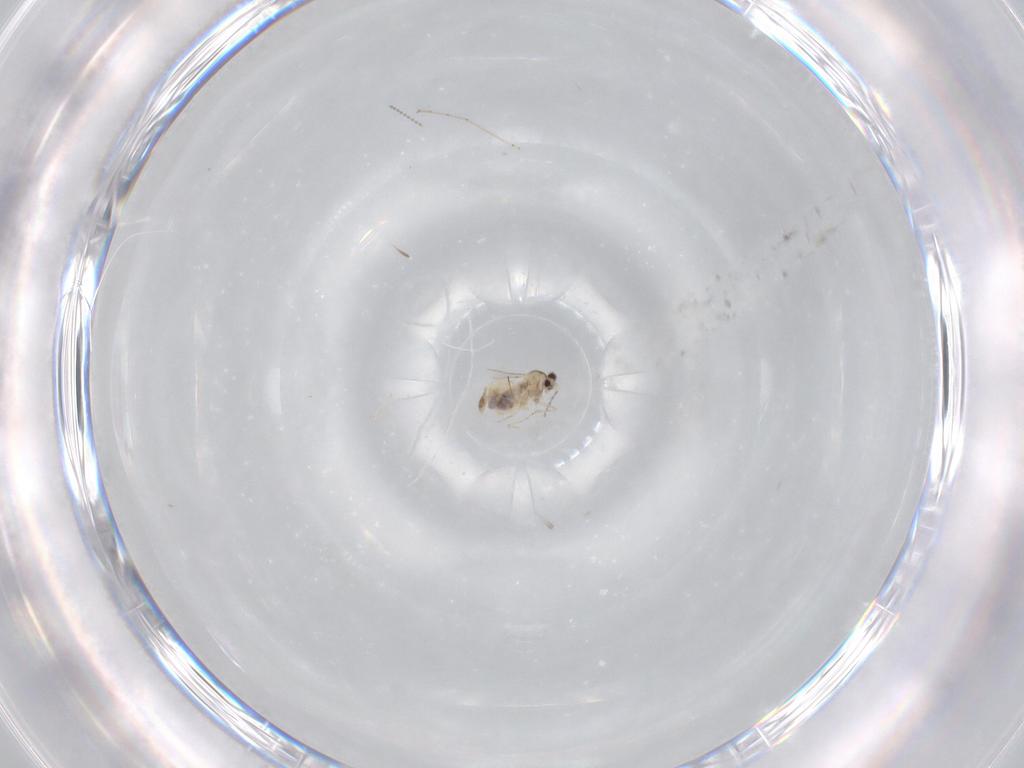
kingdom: Animalia
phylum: Arthropoda
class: Insecta
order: Diptera
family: Cecidomyiidae
